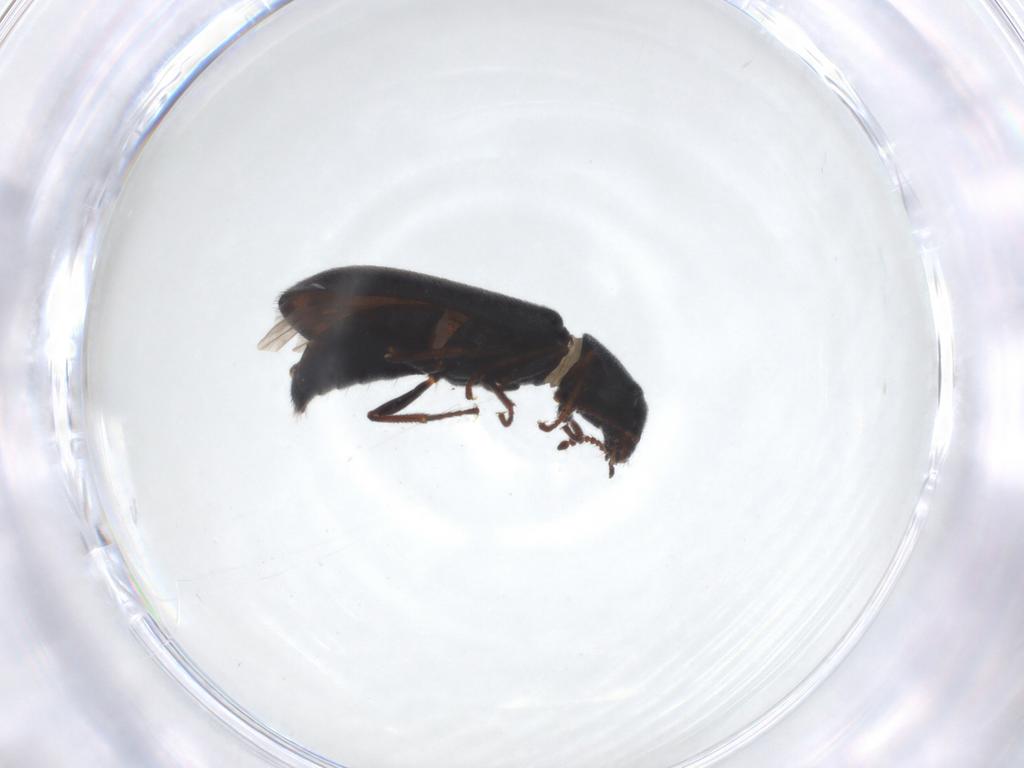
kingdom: Animalia
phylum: Arthropoda
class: Insecta
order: Coleoptera
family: Melyridae
